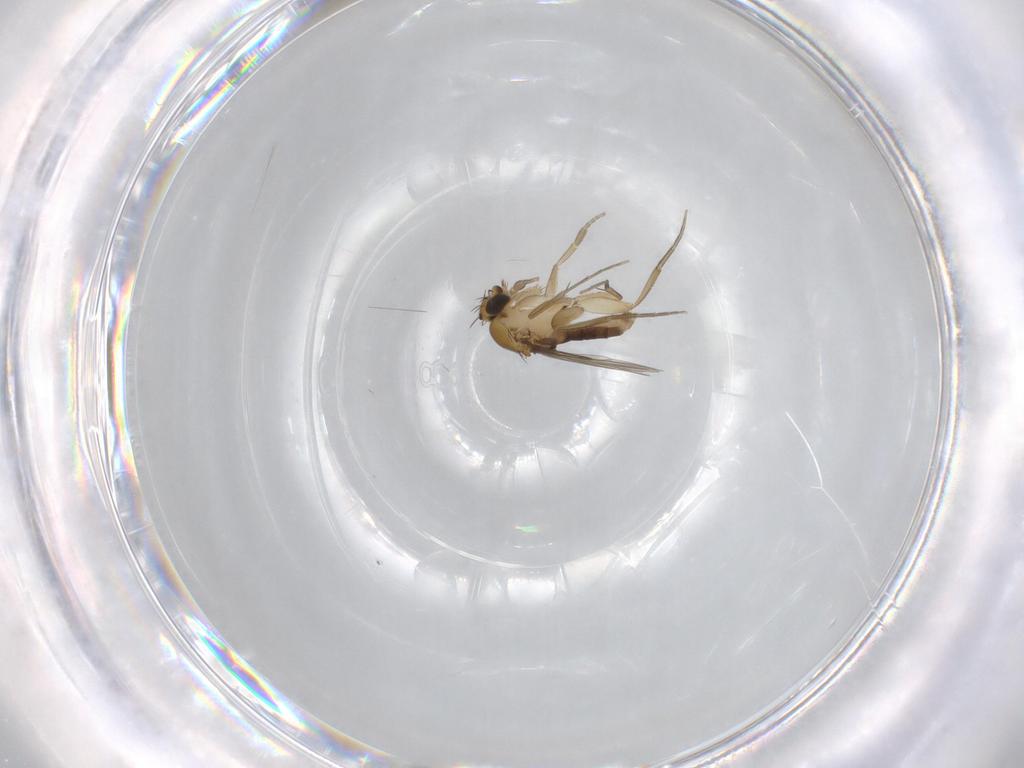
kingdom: Animalia
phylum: Arthropoda
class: Insecta
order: Diptera
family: Phoridae
